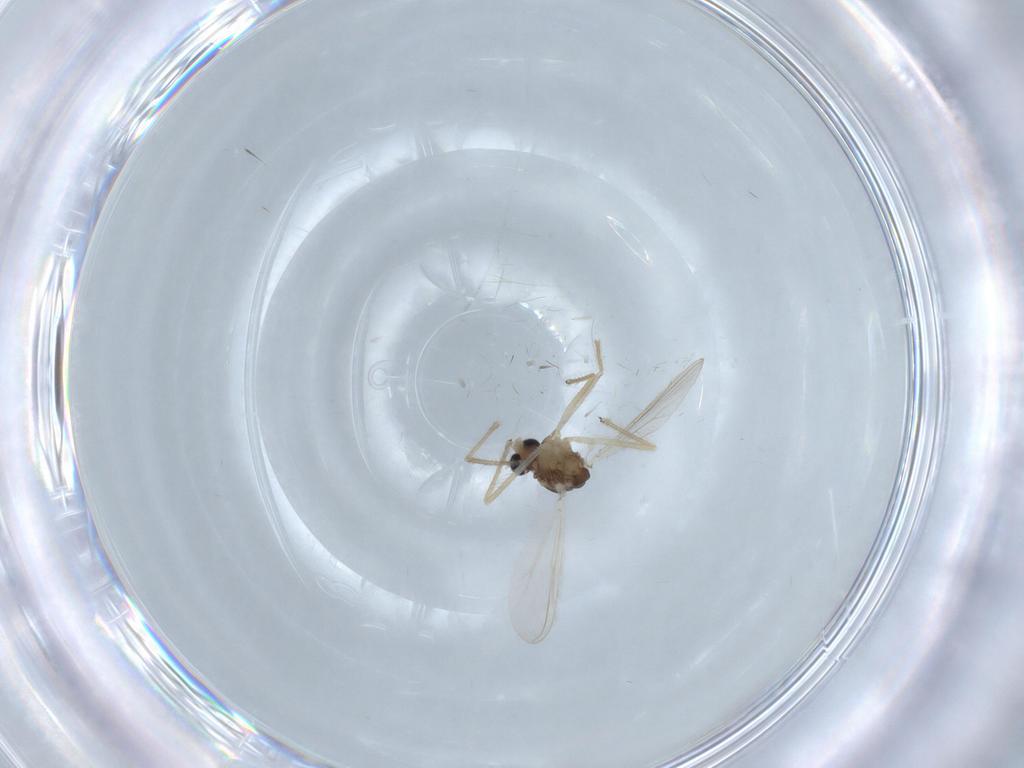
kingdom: Animalia
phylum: Arthropoda
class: Insecta
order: Diptera
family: Chironomidae
